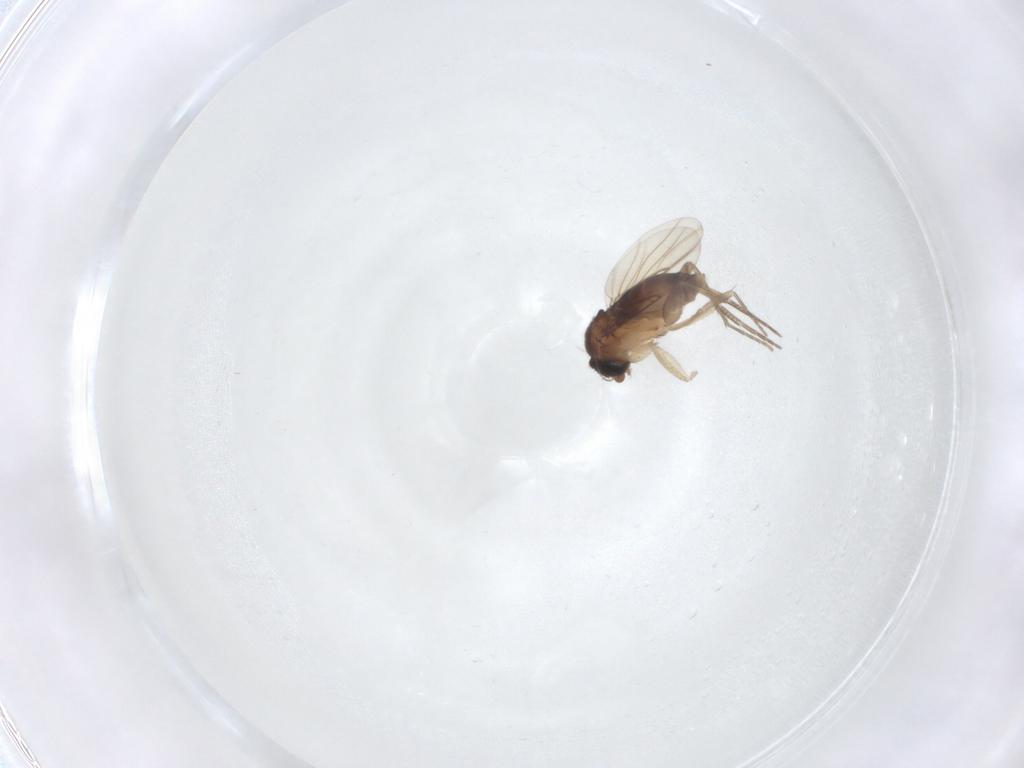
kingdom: Animalia
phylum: Arthropoda
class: Insecta
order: Diptera
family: Phoridae
